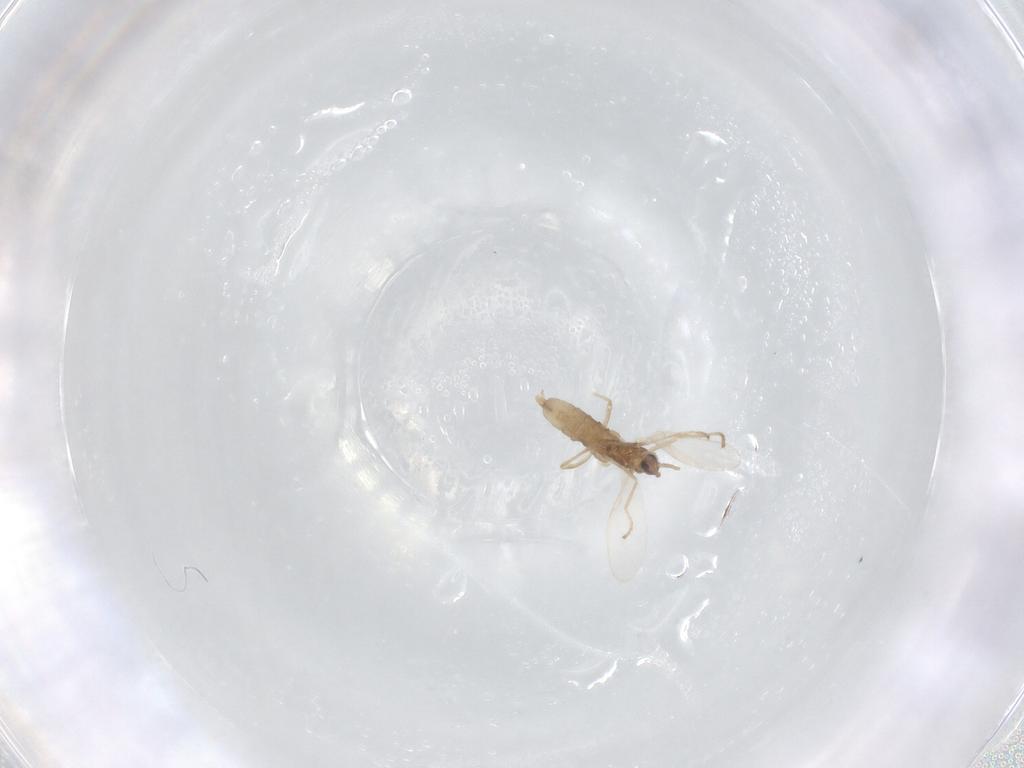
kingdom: Animalia
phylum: Arthropoda
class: Insecta
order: Diptera
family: Cecidomyiidae
